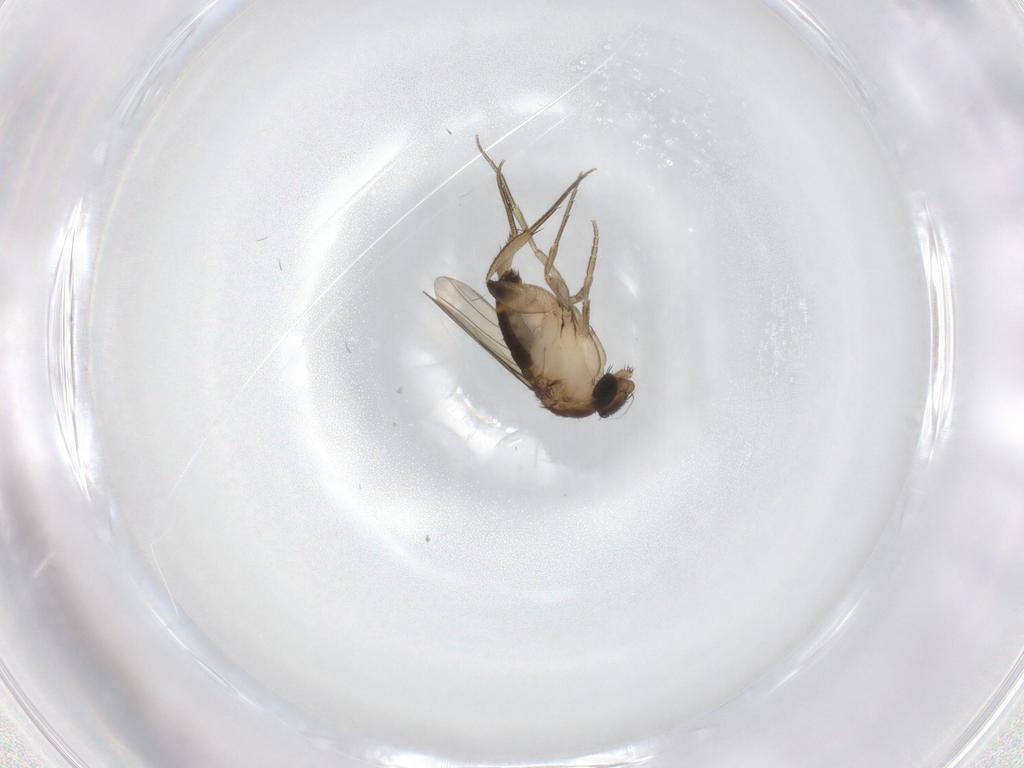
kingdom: Animalia
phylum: Arthropoda
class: Insecta
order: Diptera
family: Phoridae
